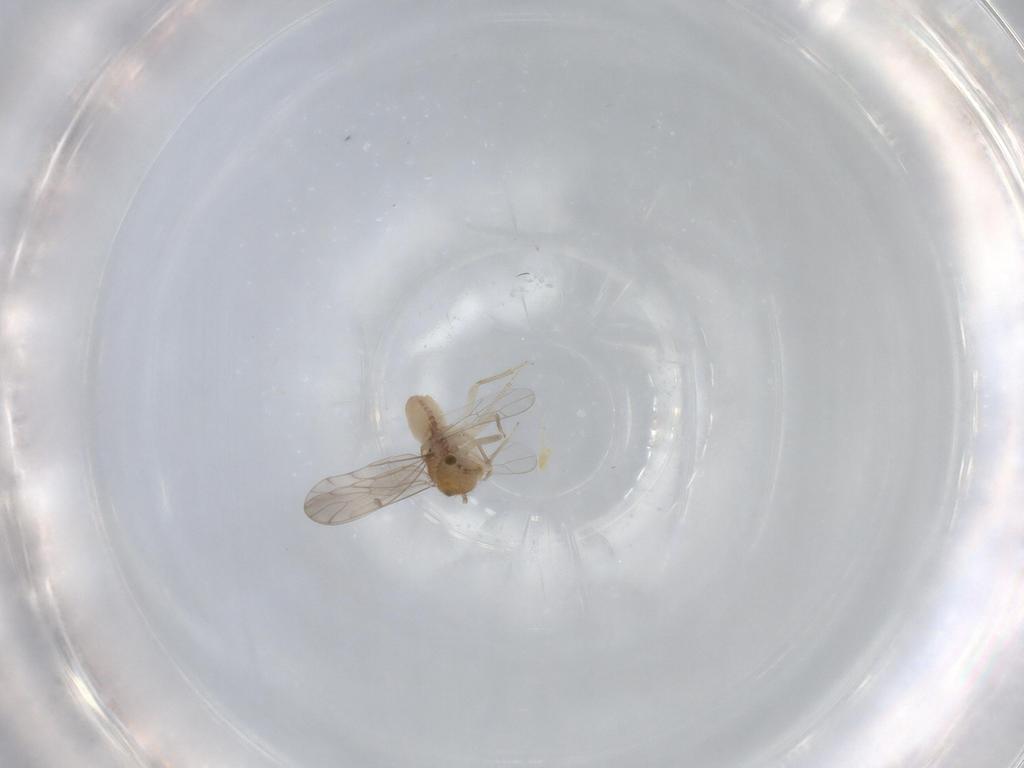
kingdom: Animalia
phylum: Arthropoda
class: Insecta
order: Psocodea
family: Ectopsocidae
